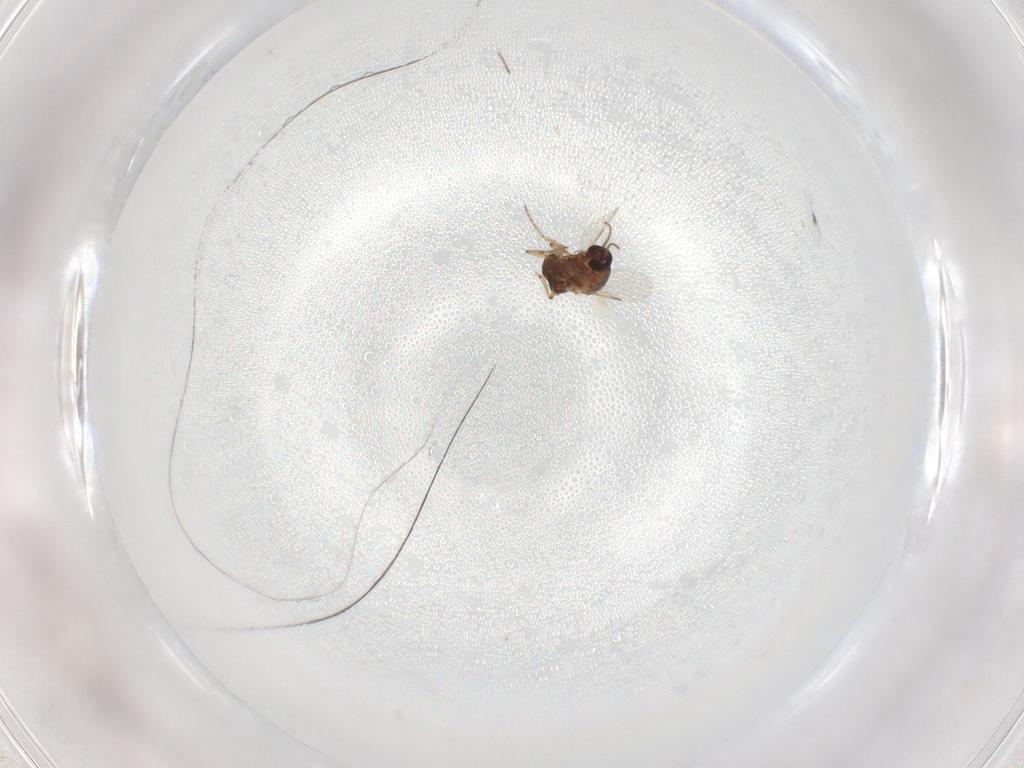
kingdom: Animalia
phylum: Arthropoda
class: Insecta
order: Diptera
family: Ceratopogonidae
